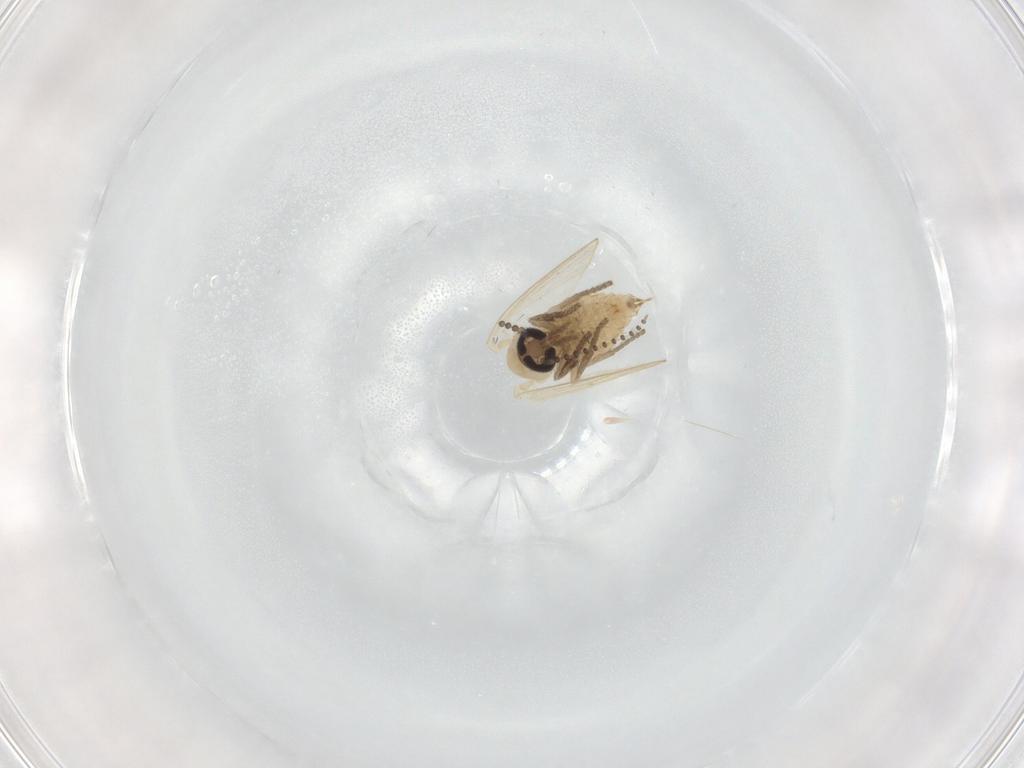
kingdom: Animalia
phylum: Arthropoda
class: Insecta
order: Diptera
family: Psychodidae
